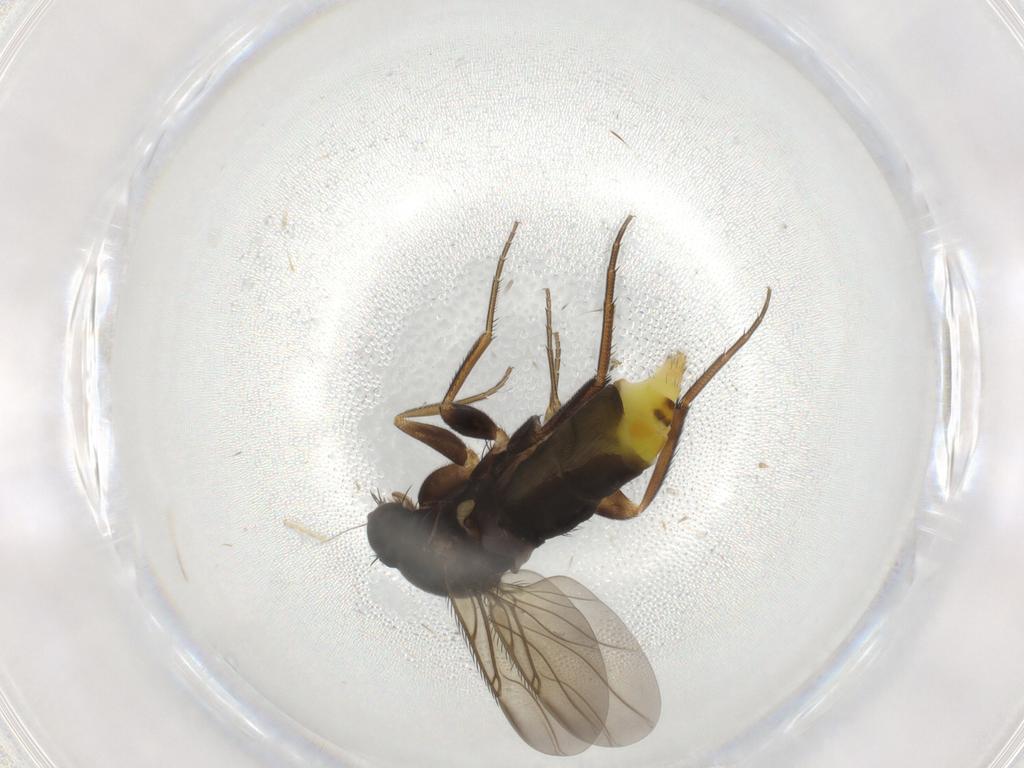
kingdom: Animalia
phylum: Arthropoda
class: Insecta
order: Diptera
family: Phoridae
